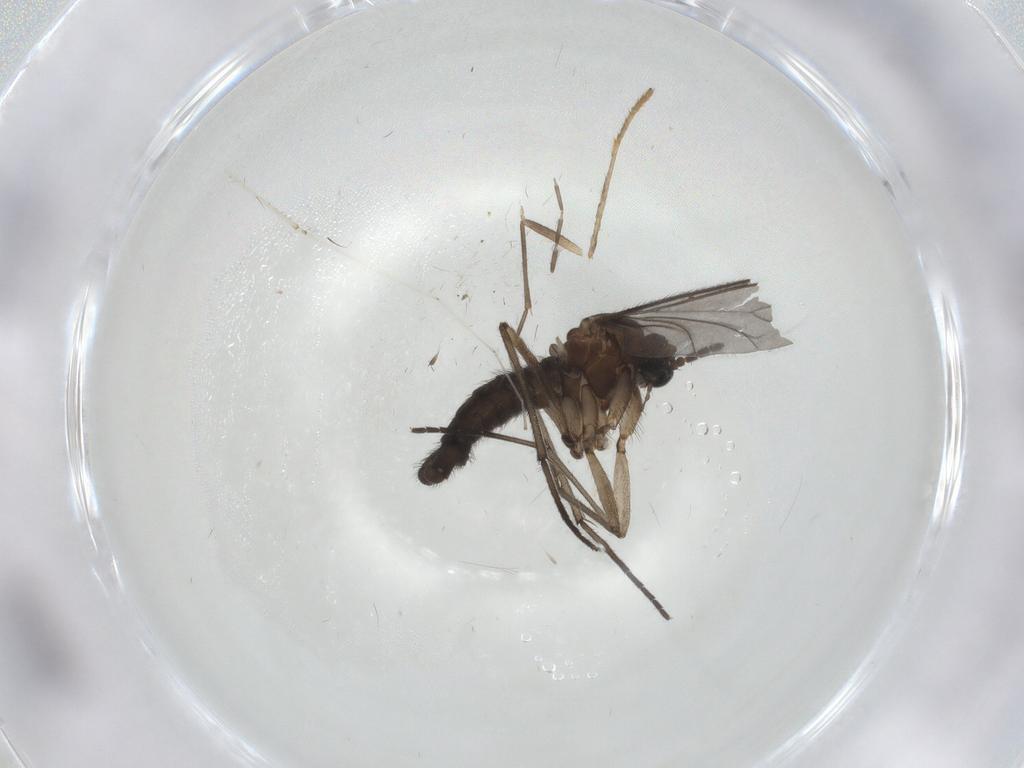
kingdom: Animalia
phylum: Arthropoda
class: Insecta
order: Diptera
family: Sciaridae
